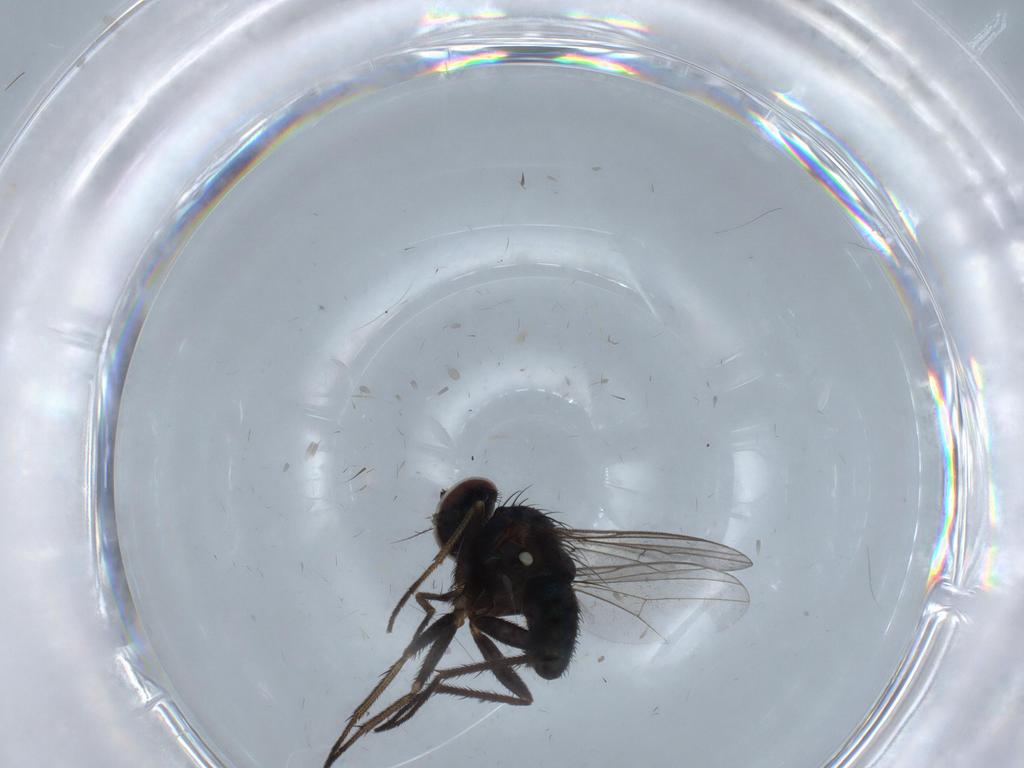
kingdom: Animalia
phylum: Arthropoda
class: Insecta
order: Diptera
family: Dolichopodidae
